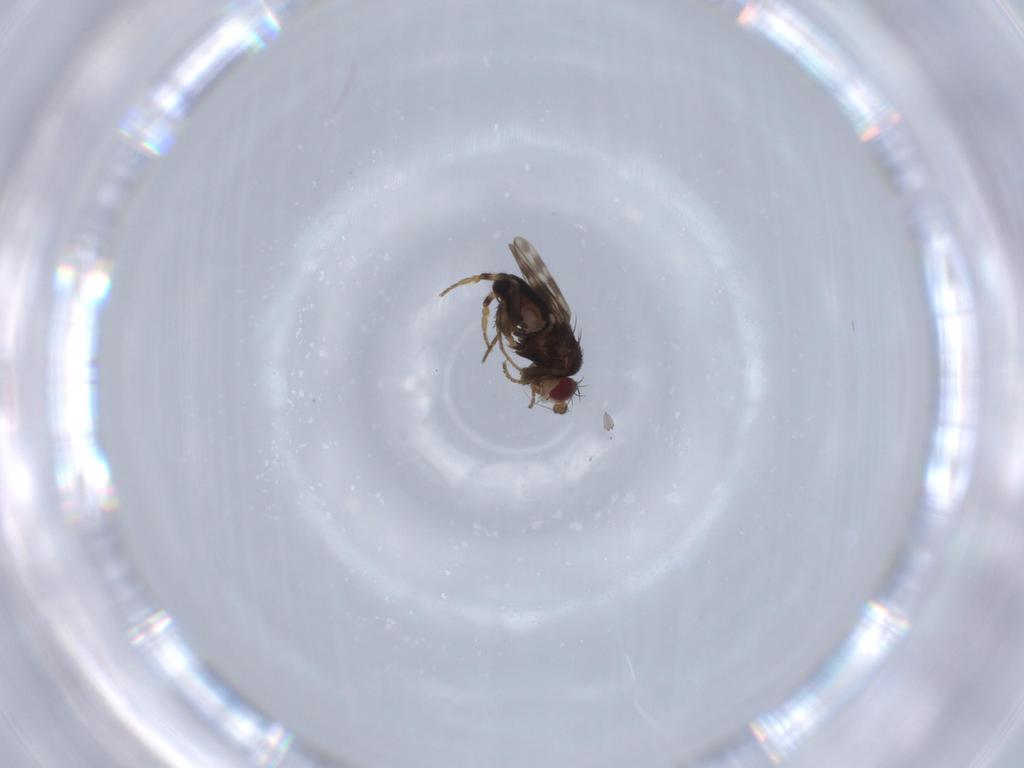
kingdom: Animalia
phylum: Arthropoda
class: Insecta
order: Diptera
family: Sphaeroceridae
